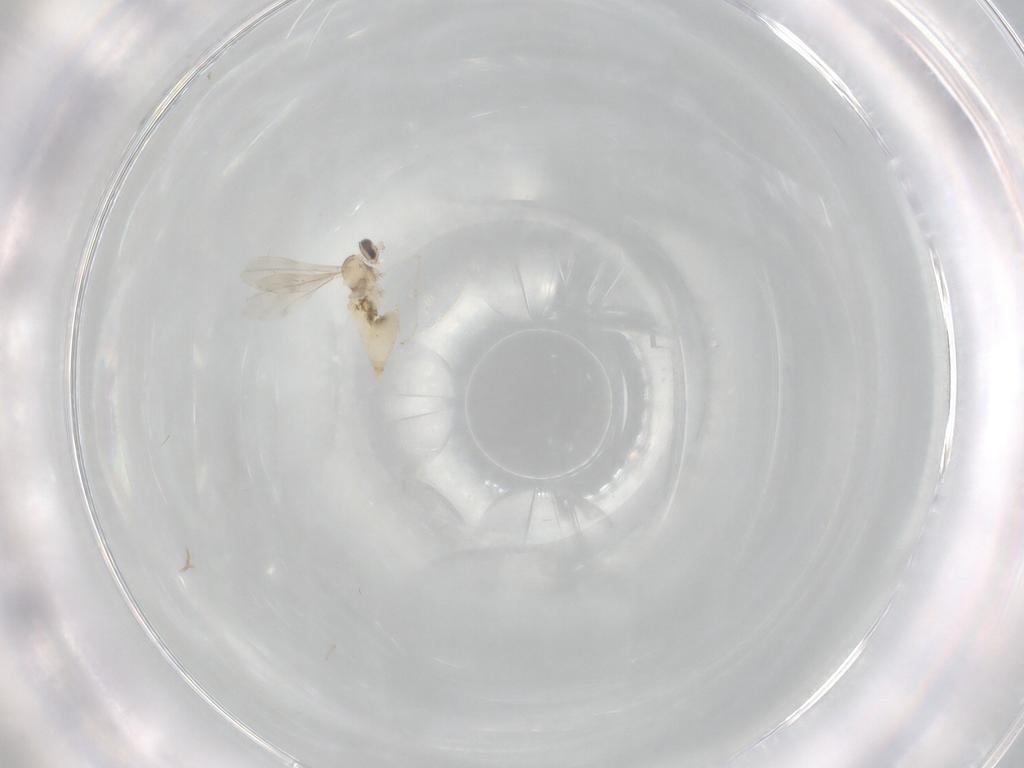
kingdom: Animalia
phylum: Arthropoda
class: Insecta
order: Diptera
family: Cecidomyiidae
